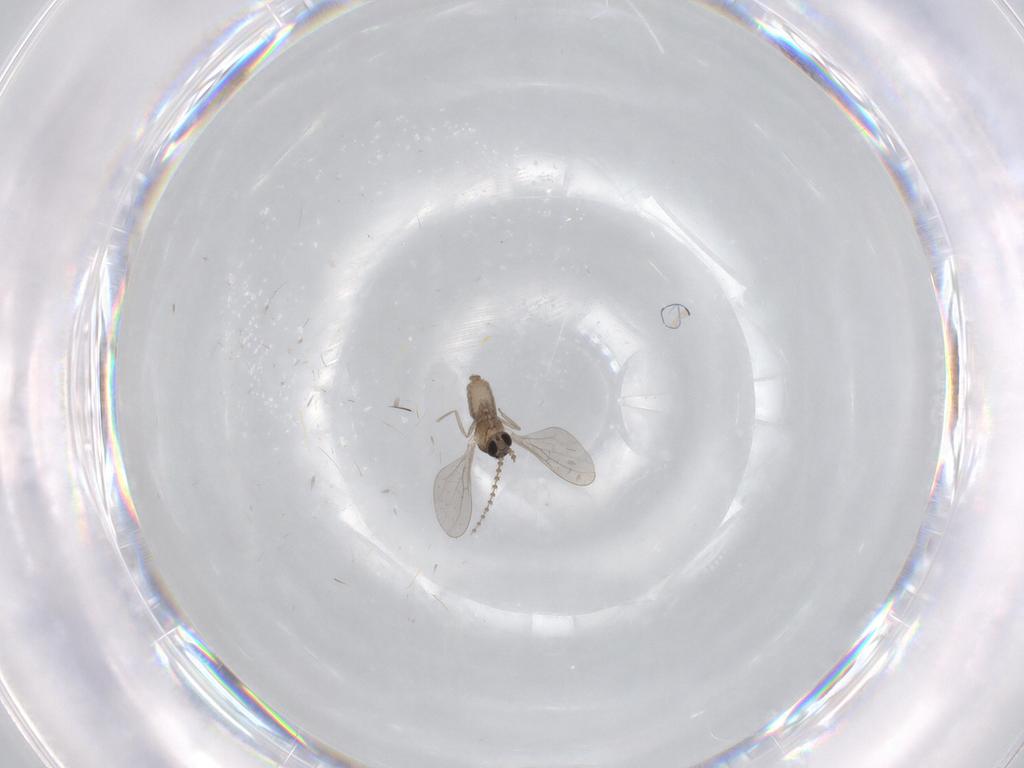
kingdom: Animalia
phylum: Arthropoda
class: Insecta
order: Diptera
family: Cecidomyiidae
